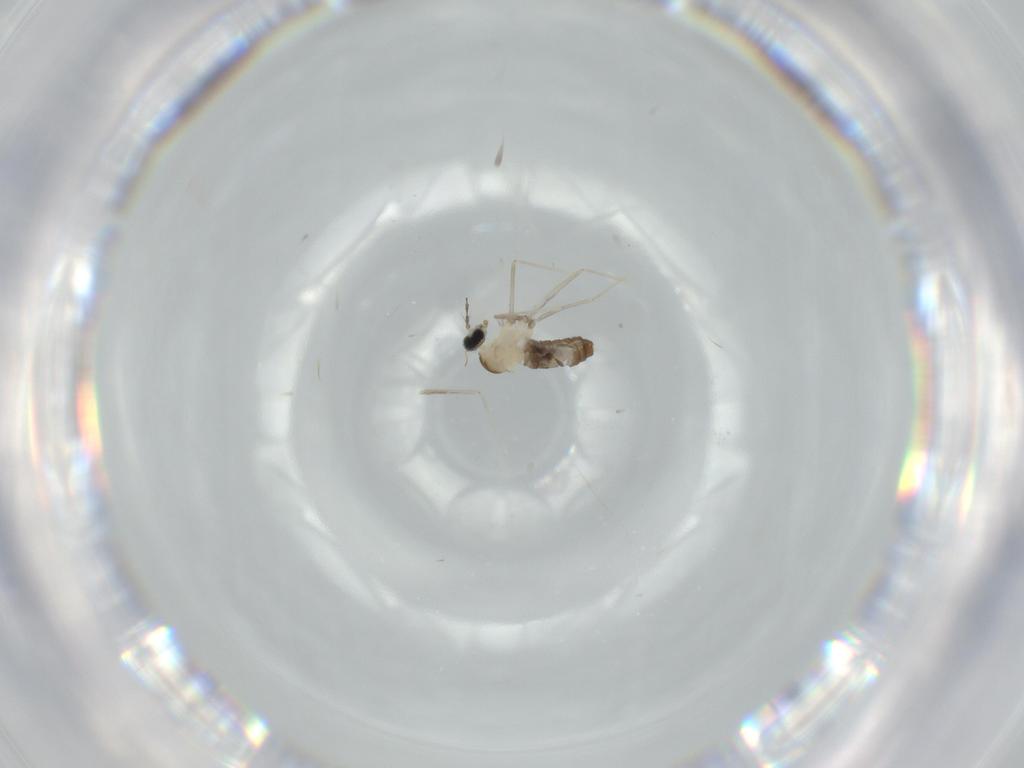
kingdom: Animalia
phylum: Arthropoda
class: Insecta
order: Diptera
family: Cecidomyiidae
